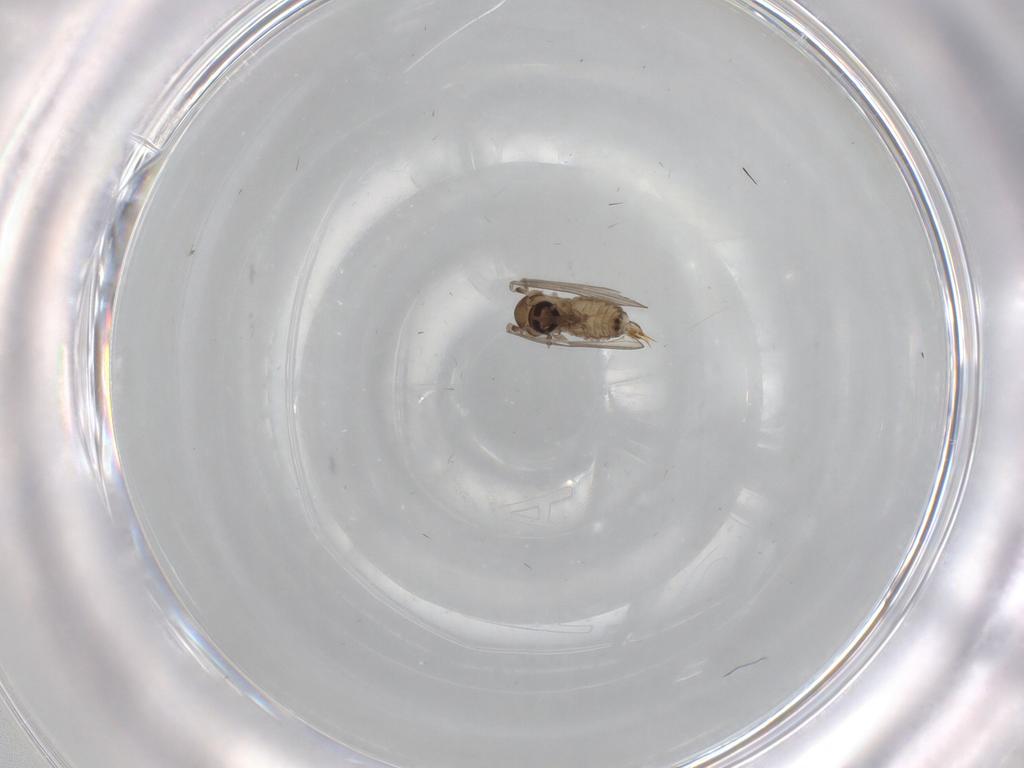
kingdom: Animalia
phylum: Arthropoda
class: Insecta
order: Diptera
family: Psychodidae
